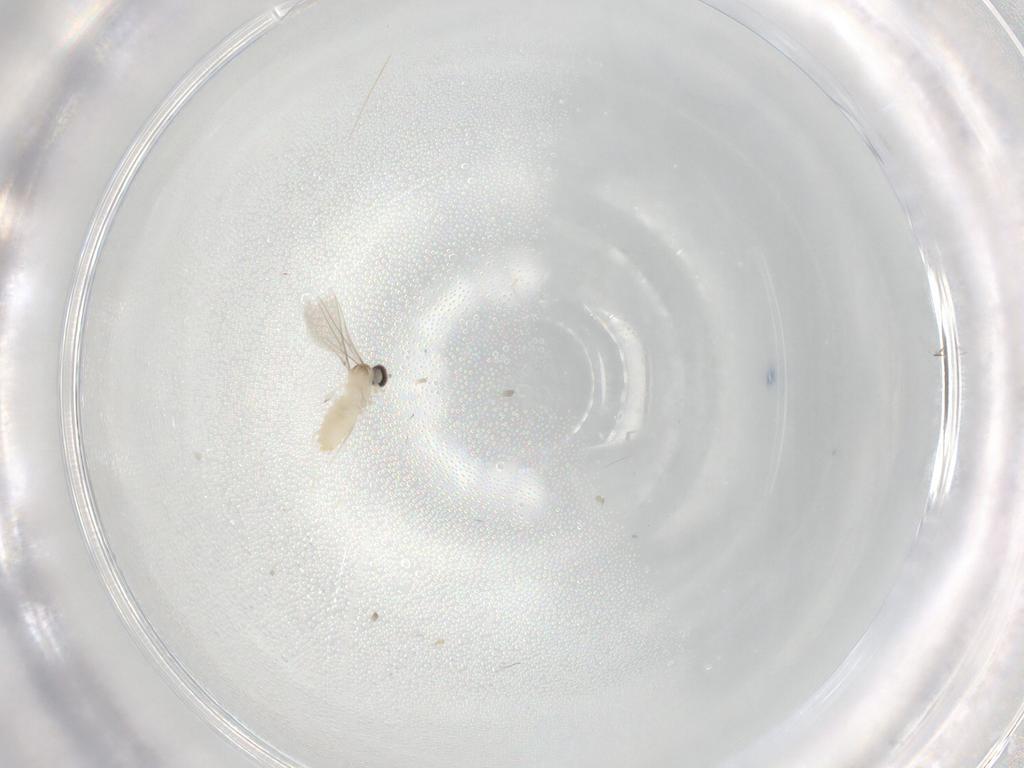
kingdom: Animalia
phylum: Arthropoda
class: Insecta
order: Diptera
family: Cecidomyiidae
